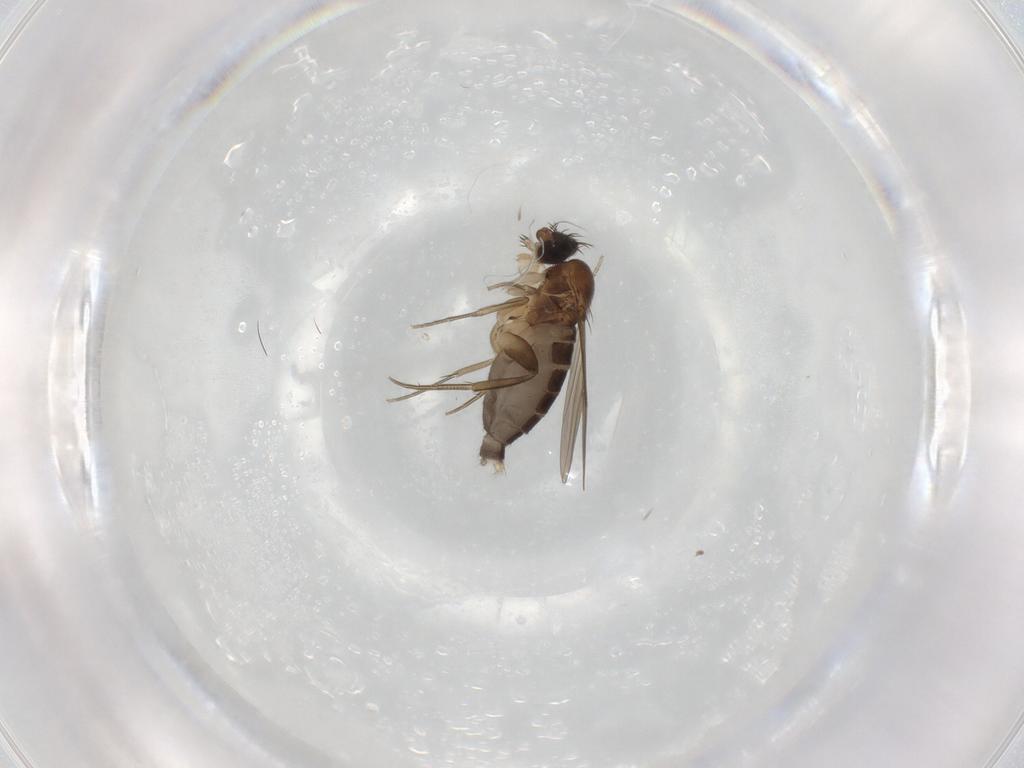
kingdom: Animalia
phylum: Arthropoda
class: Insecta
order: Diptera
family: Phoridae
